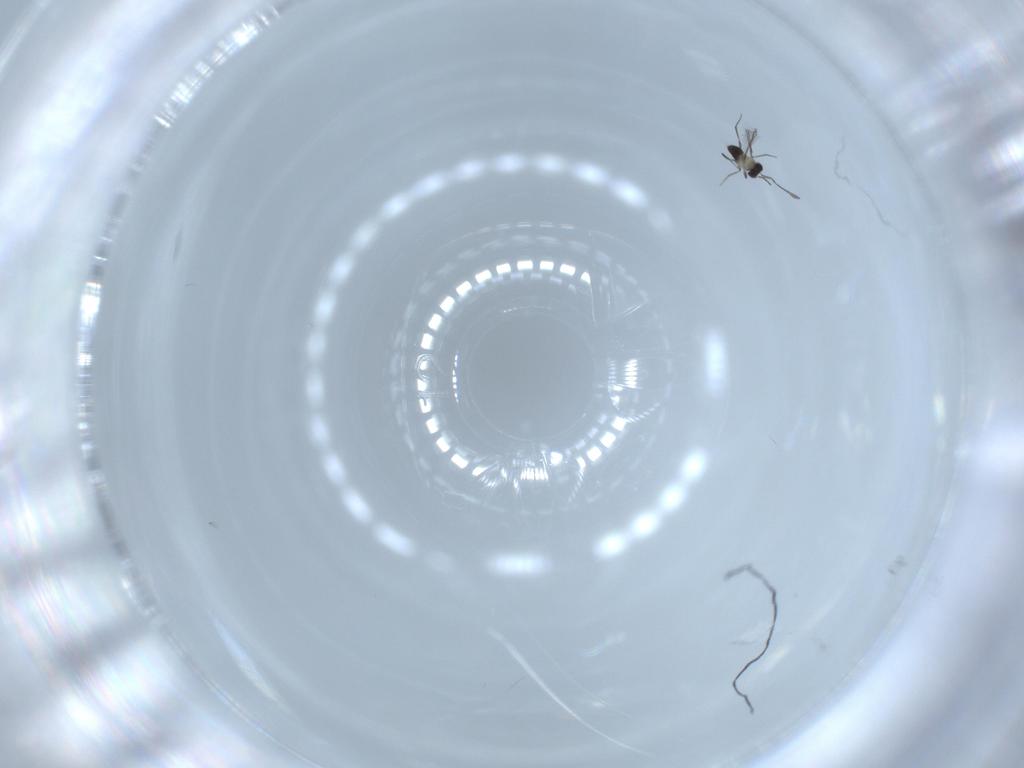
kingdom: Animalia
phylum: Arthropoda
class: Insecta
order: Hymenoptera
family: Mymaridae
